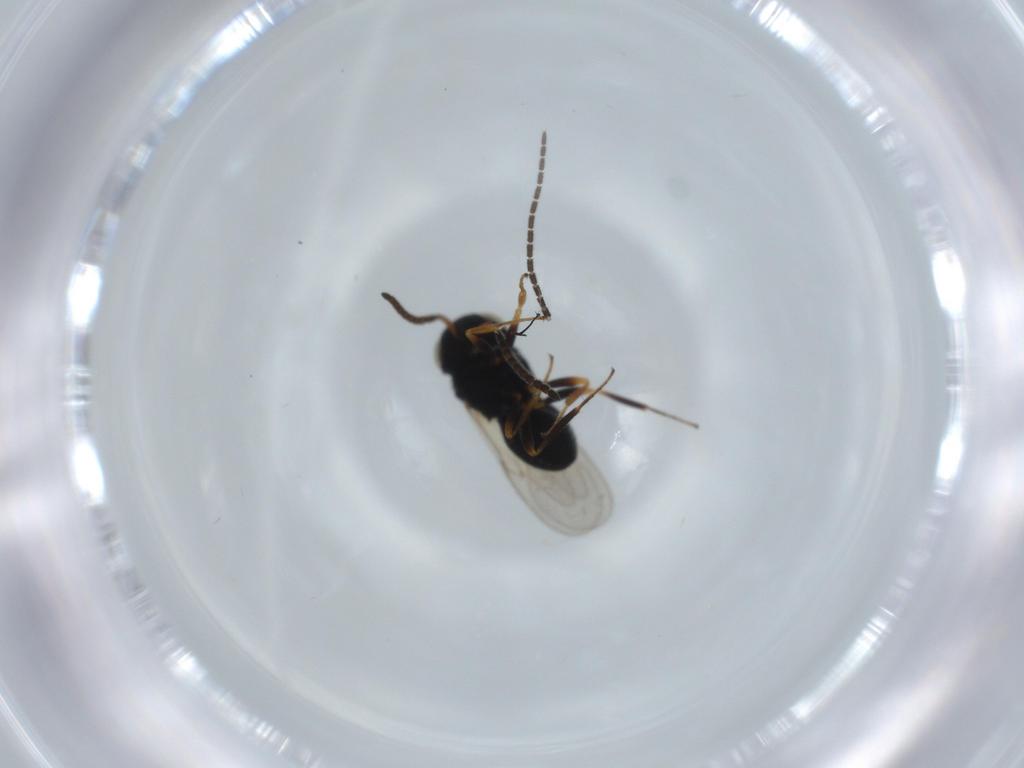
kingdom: Animalia
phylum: Arthropoda
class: Insecta
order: Hymenoptera
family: Scelionidae
